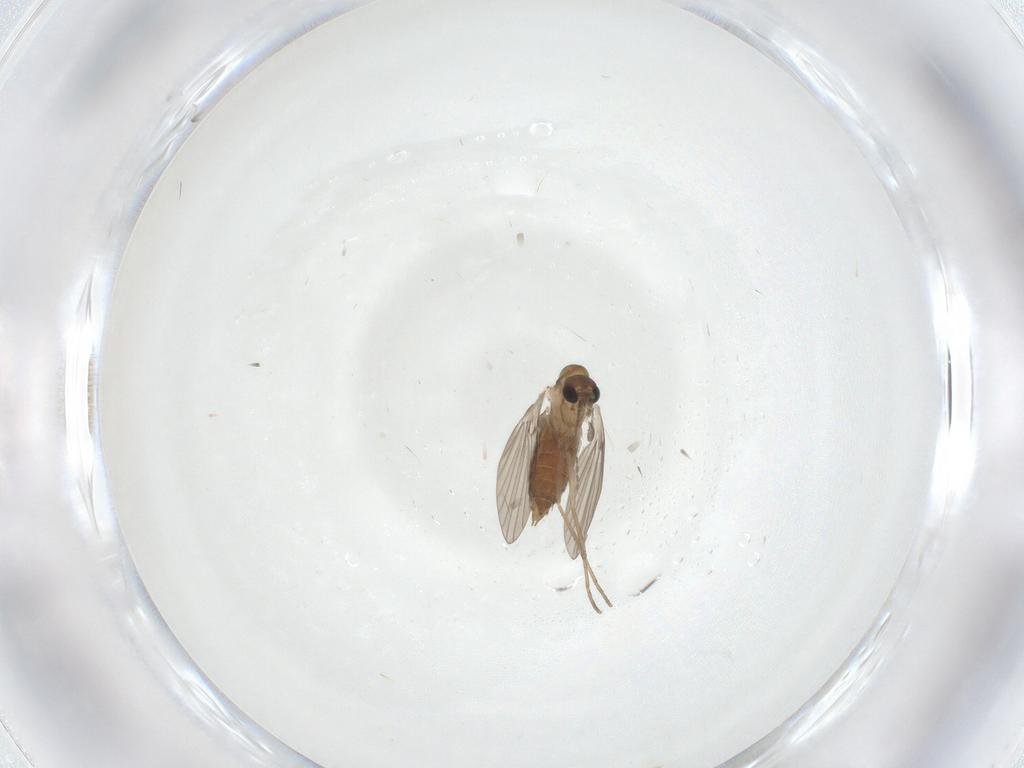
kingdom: Animalia
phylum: Arthropoda
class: Insecta
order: Diptera
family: Phoridae
